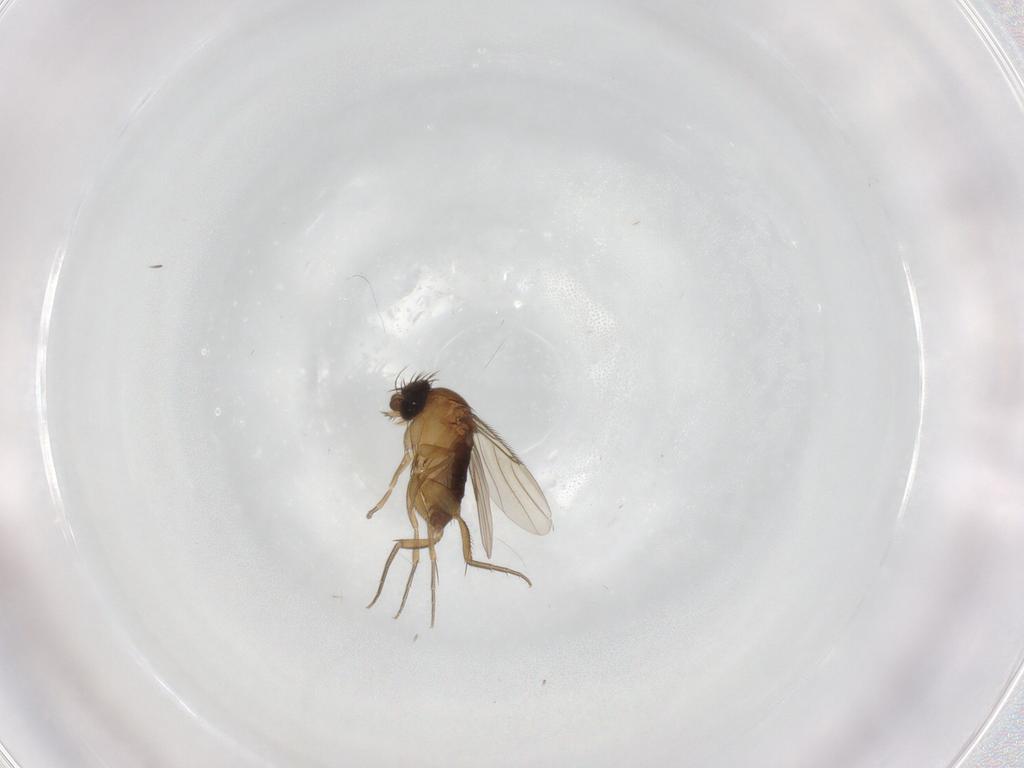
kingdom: Animalia
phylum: Arthropoda
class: Insecta
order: Diptera
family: Phoridae
